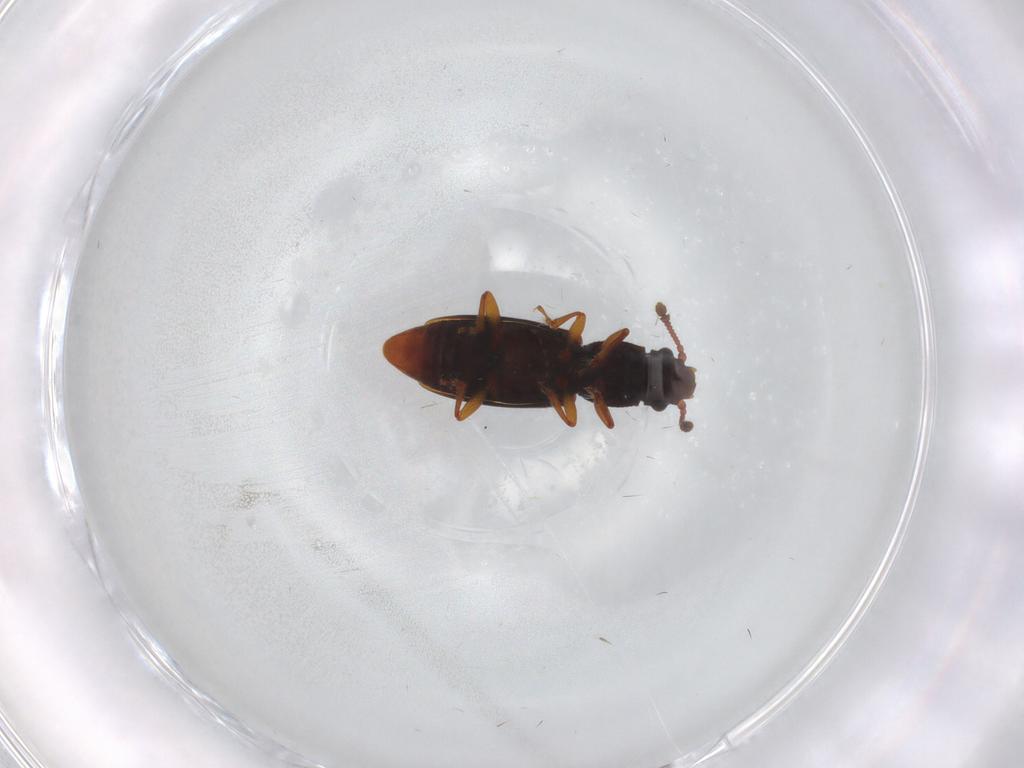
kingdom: Animalia
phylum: Arthropoda
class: Insecta
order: Coleoptera
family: Monotomidae
